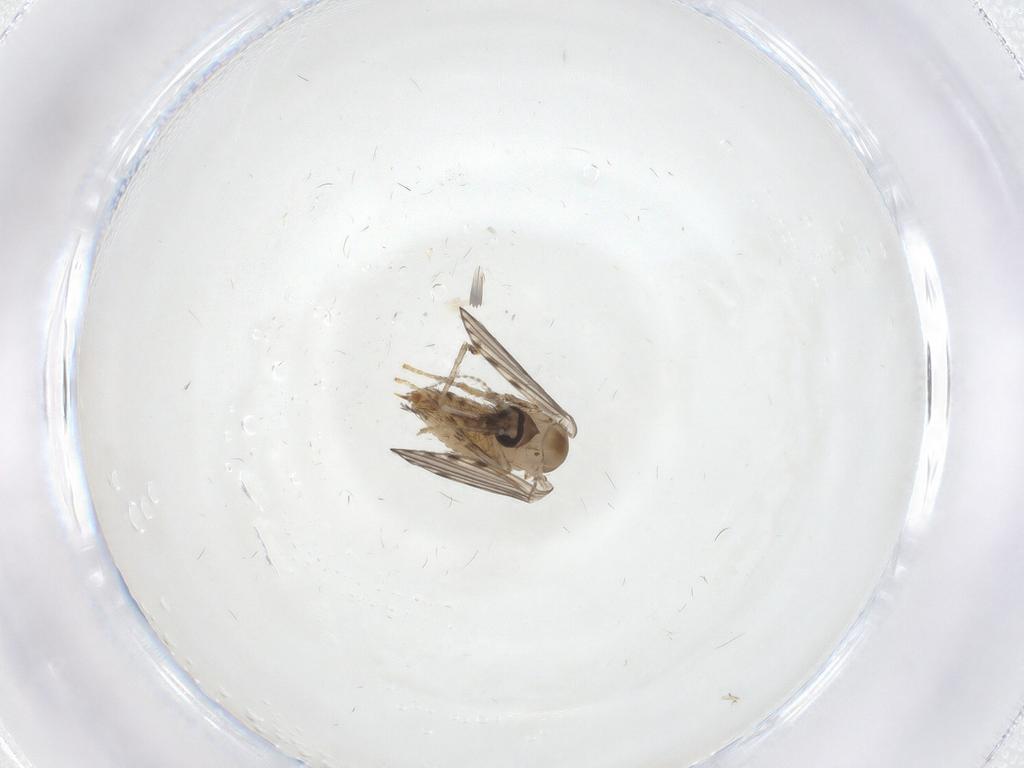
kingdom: Animalia
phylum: Arthropoda
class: Insecta
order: Diptera
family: Psychodidae
